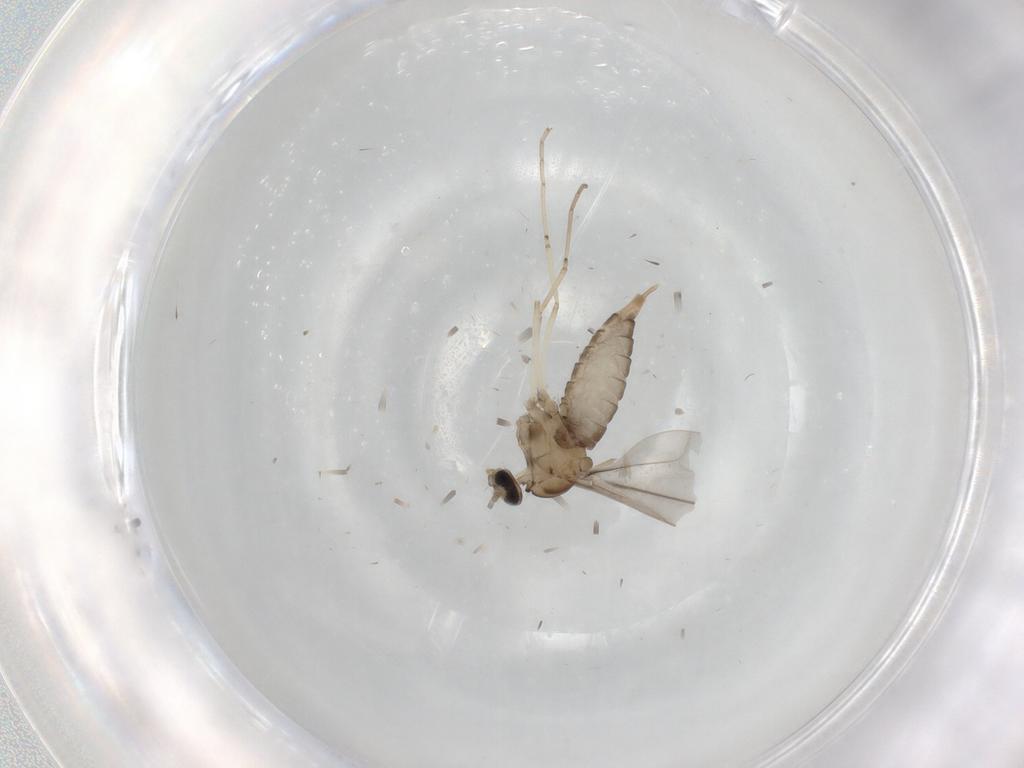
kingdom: Animalia
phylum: Arthropoda
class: Insecta
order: Diptera
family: Cecidomyiidae
